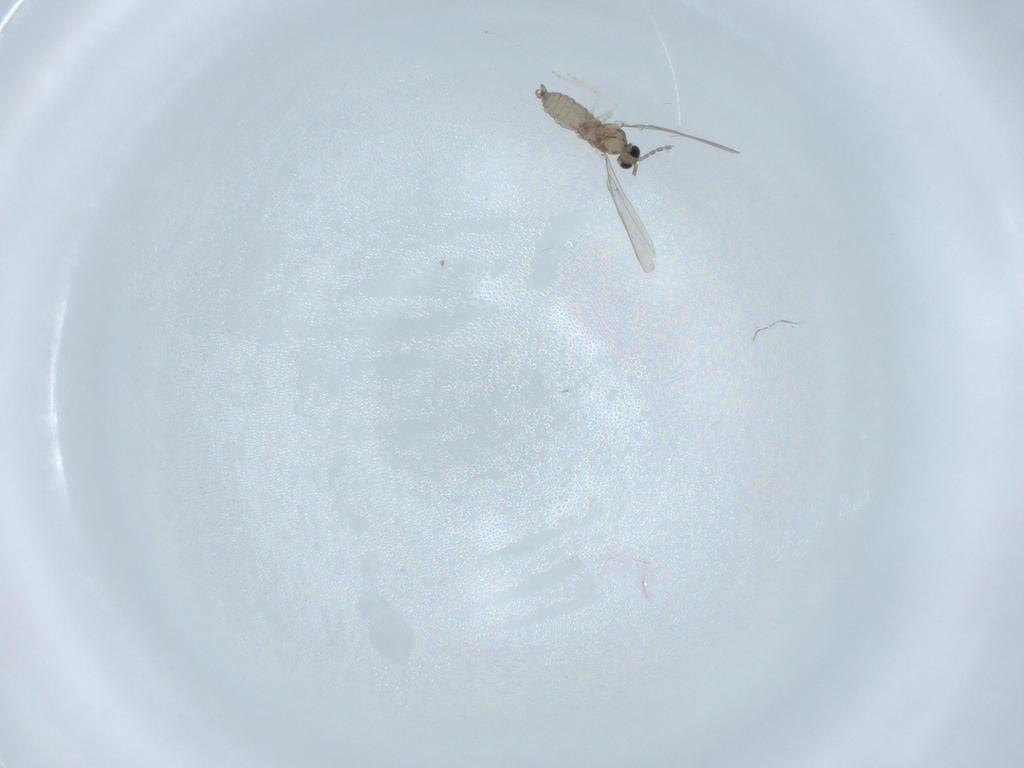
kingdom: Animalia
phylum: Arthropoda
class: Insecta
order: Diptera
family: Cecidomyiidae
